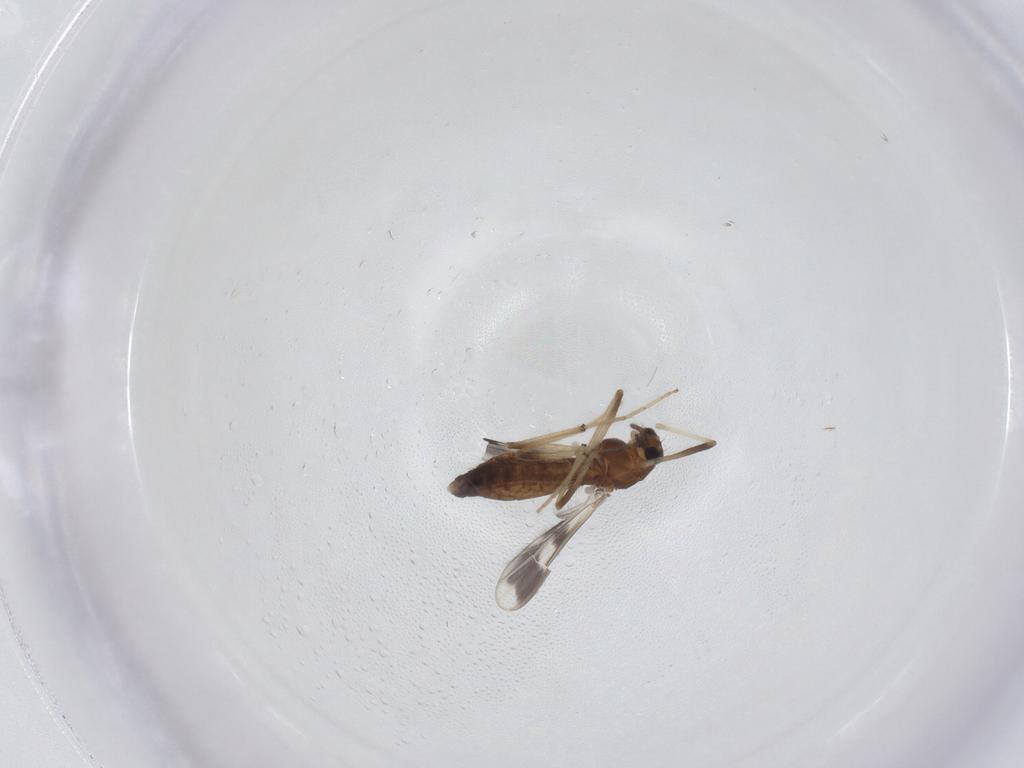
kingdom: Animalia
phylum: Arthropoda
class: Insecta
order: Diptera
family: Chironomidae
